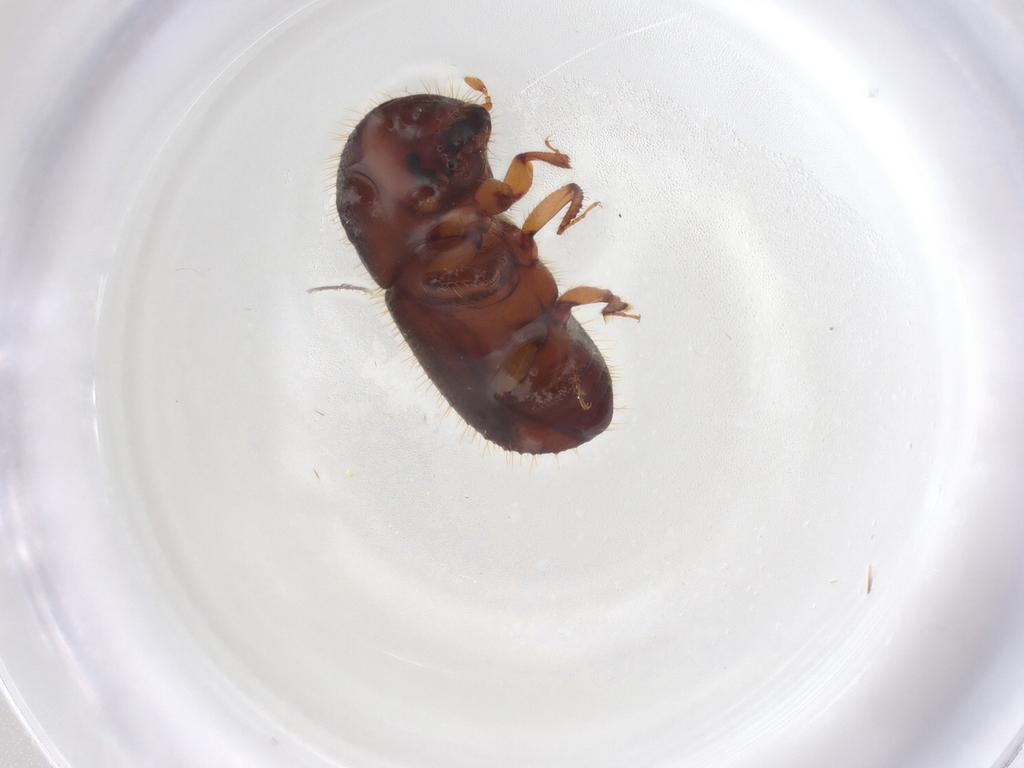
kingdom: Animalia
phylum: Arthropoda
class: Insecta
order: Coleoptera
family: Curculionidae
